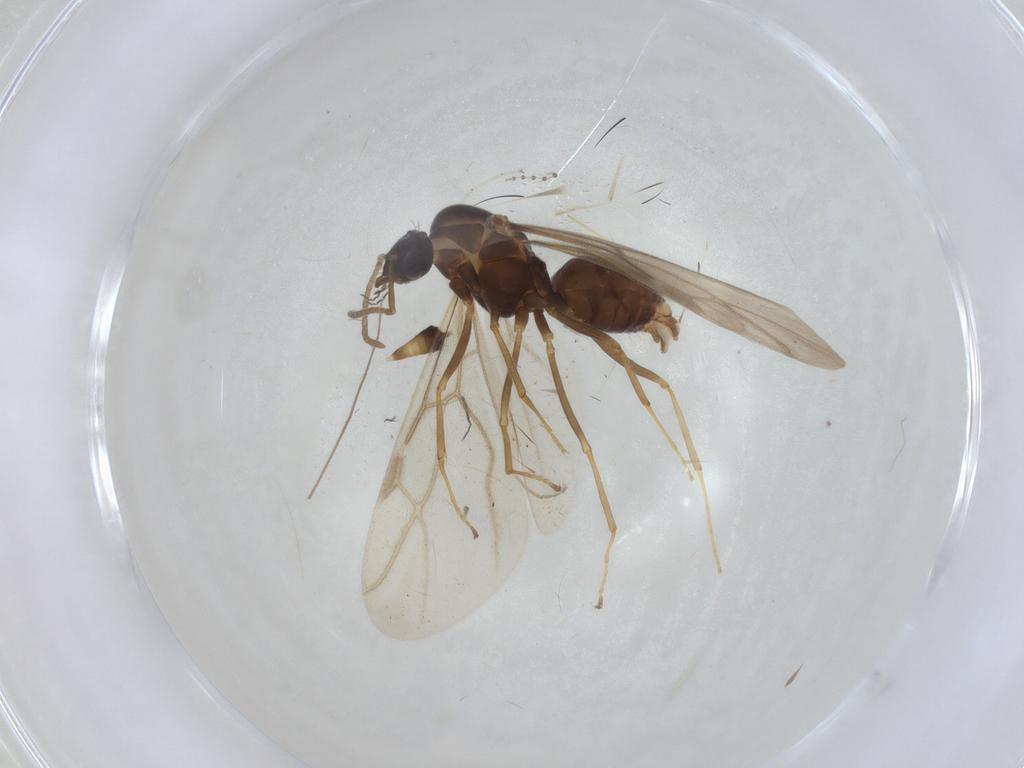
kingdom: Animalia
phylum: Arthropoda
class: Insecta
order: Hymenoptera
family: Eupelmidae
